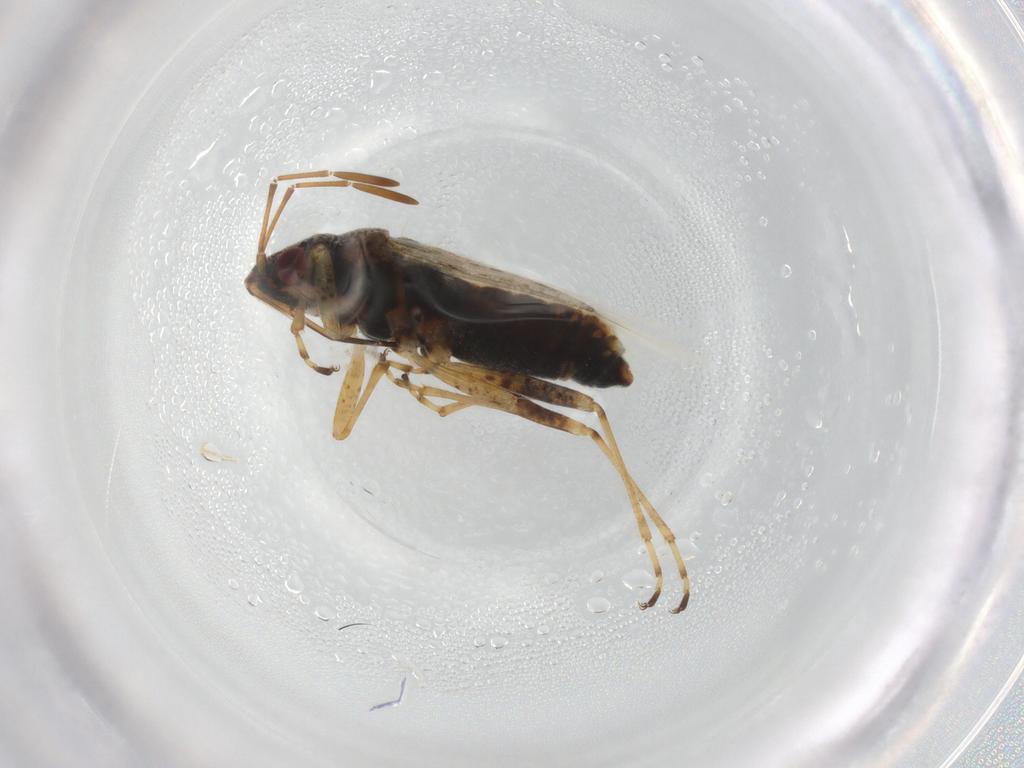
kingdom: Animalia
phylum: Arthropoda
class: Insecta
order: Hemiptera
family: Lygaeidae
